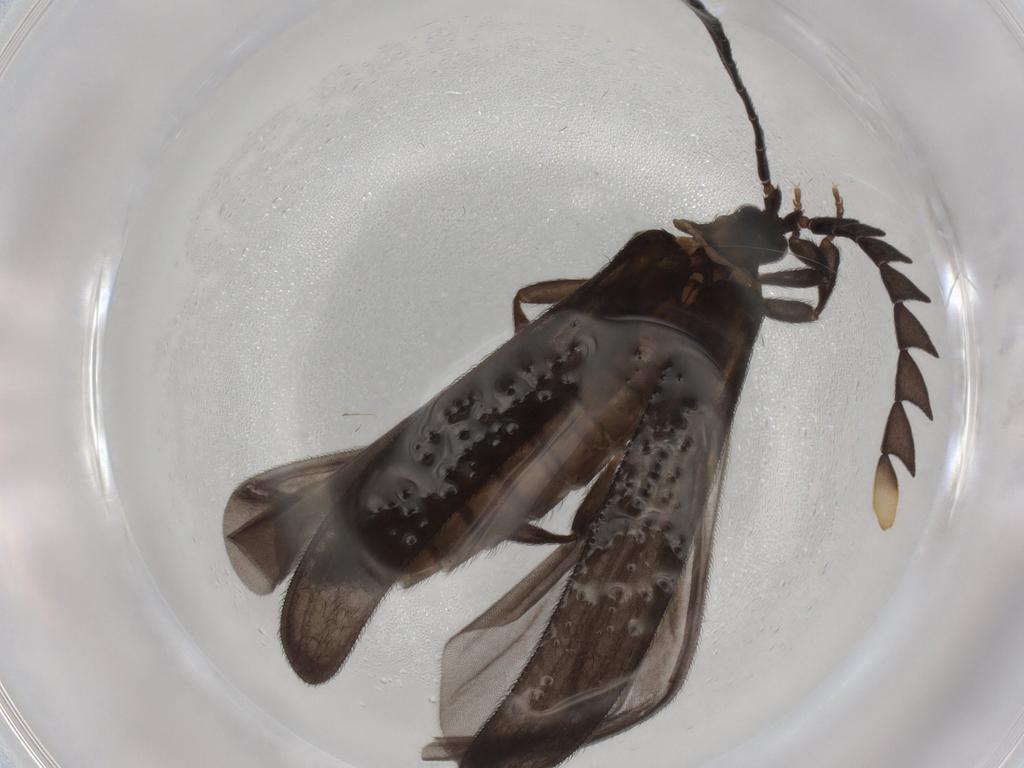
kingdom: Animalia
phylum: Arthropoda
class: Insecta
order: Coleoptera
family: Lycidae
